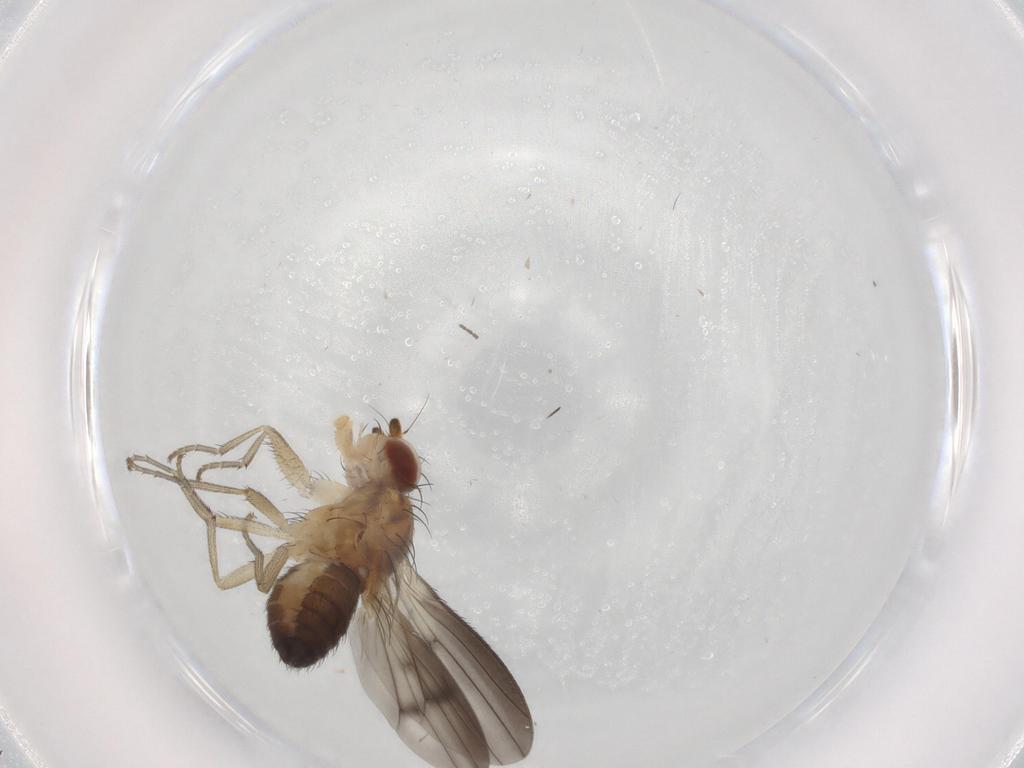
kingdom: Animalia
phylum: Arthropoda
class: Insecta
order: Diptera
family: Heleomyzidae
